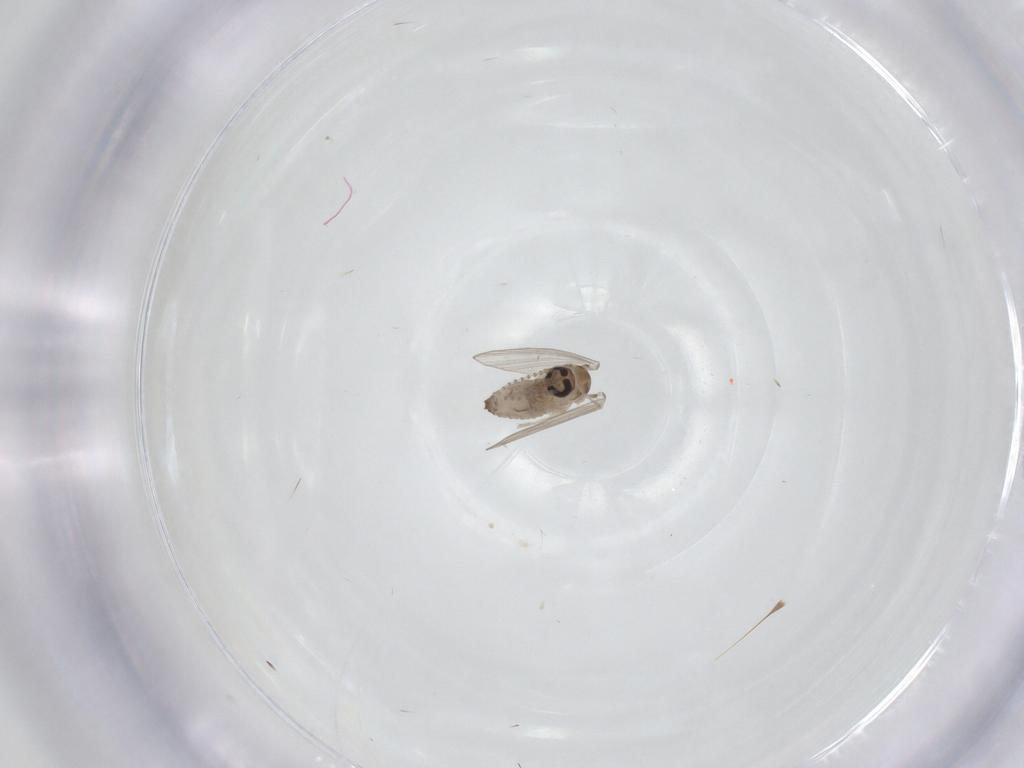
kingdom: Animalia
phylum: Arthropoda
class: Insecta
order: Diptera
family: Psychodidae
